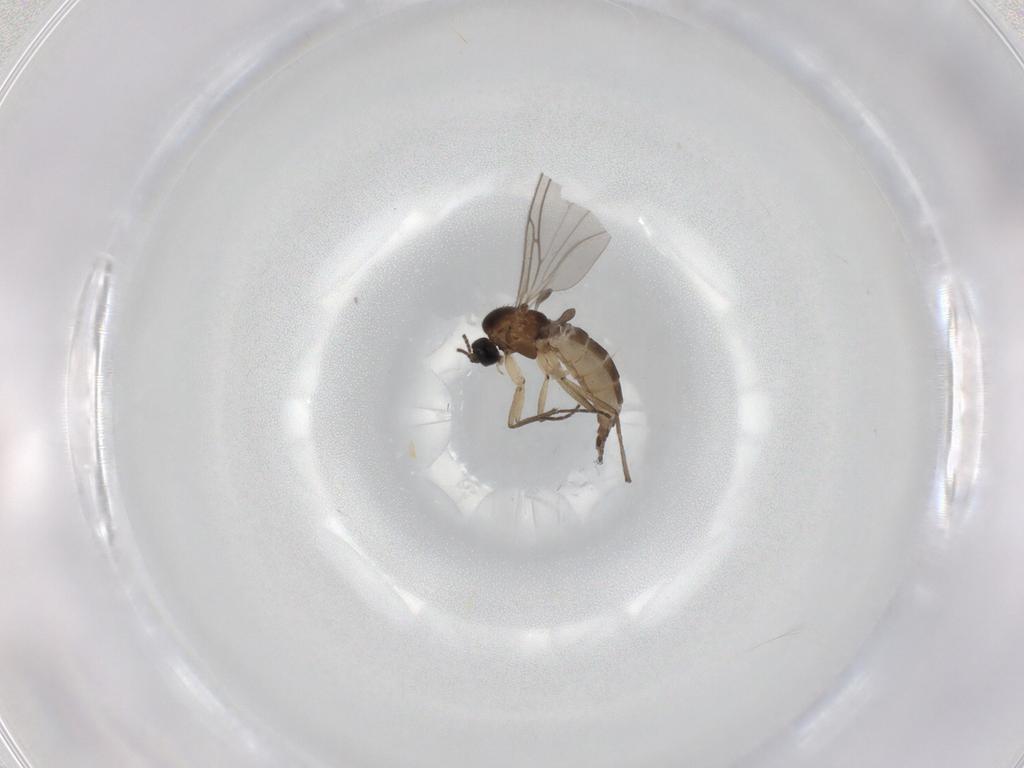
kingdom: Animalia
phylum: Arthropoda
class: Insecta
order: Diptera
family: Sciaridae
